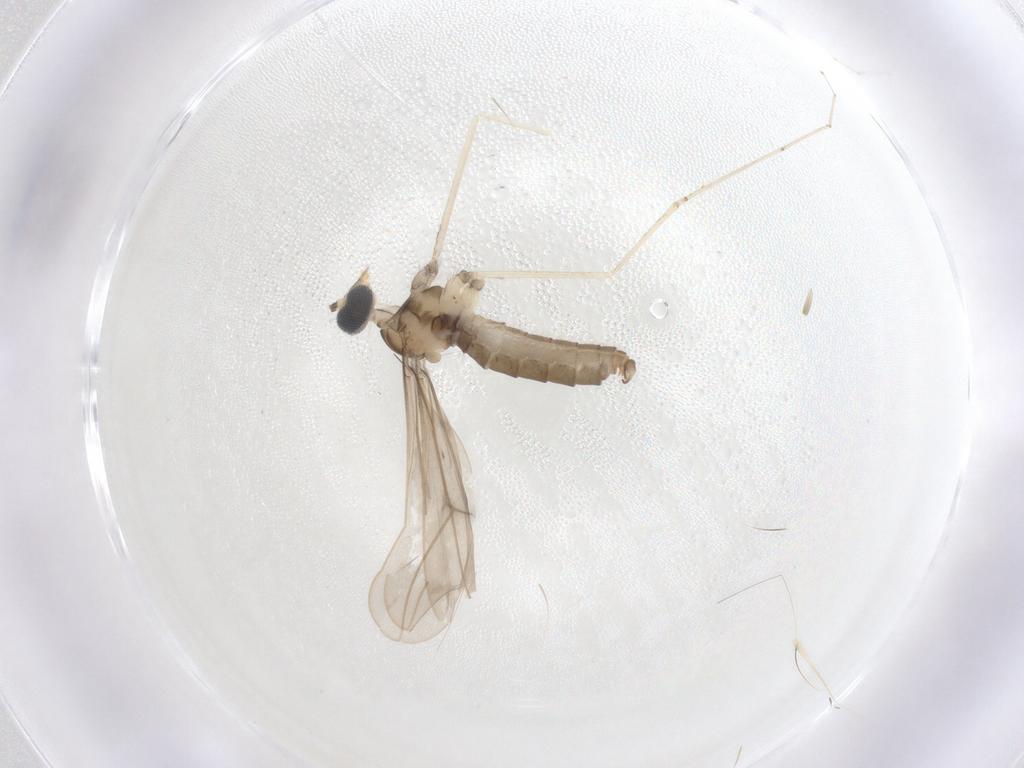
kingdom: Animalia
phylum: Arthropoda
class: Insecta
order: Diptera
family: Cecidomyiidae
